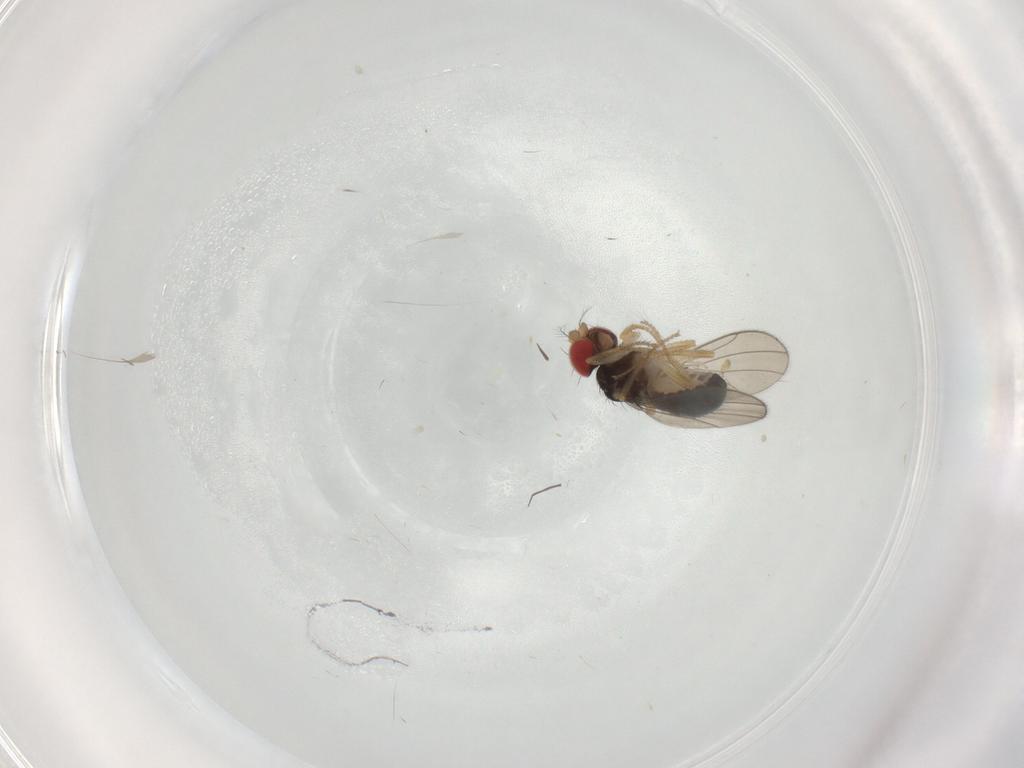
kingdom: Animalia
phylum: Arthropoda
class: Insecta
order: Diptera
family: Drosophilidae
